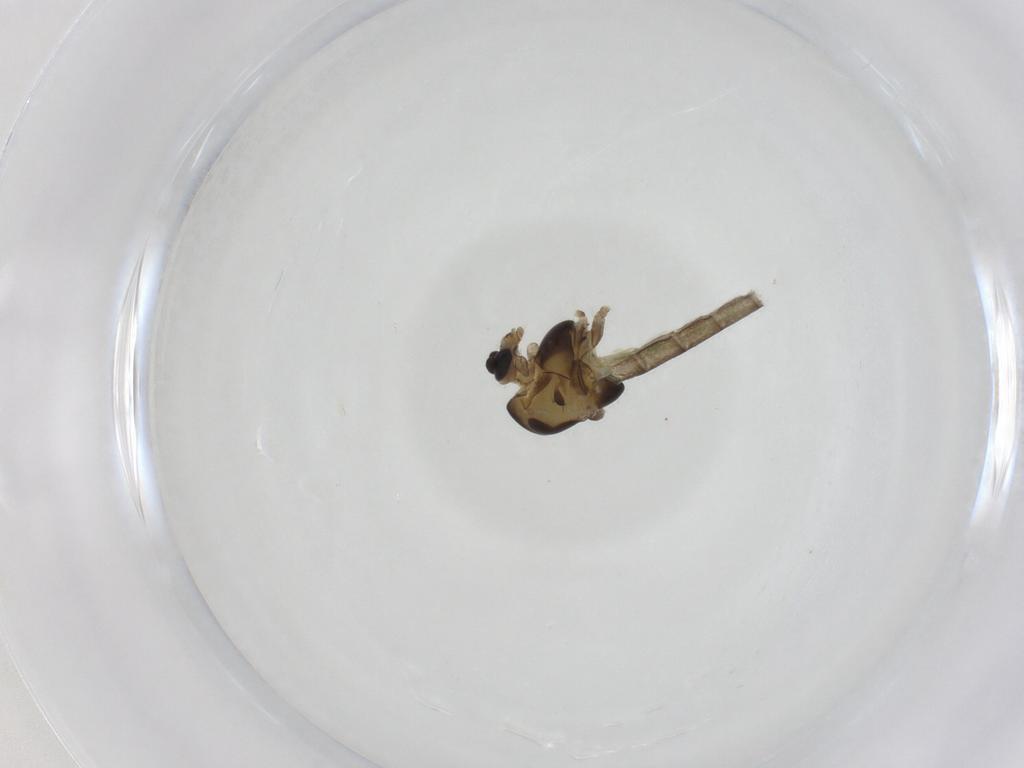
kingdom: Animalia
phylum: Arthropoda
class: Insecta
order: Diptera
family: Chironomidae
